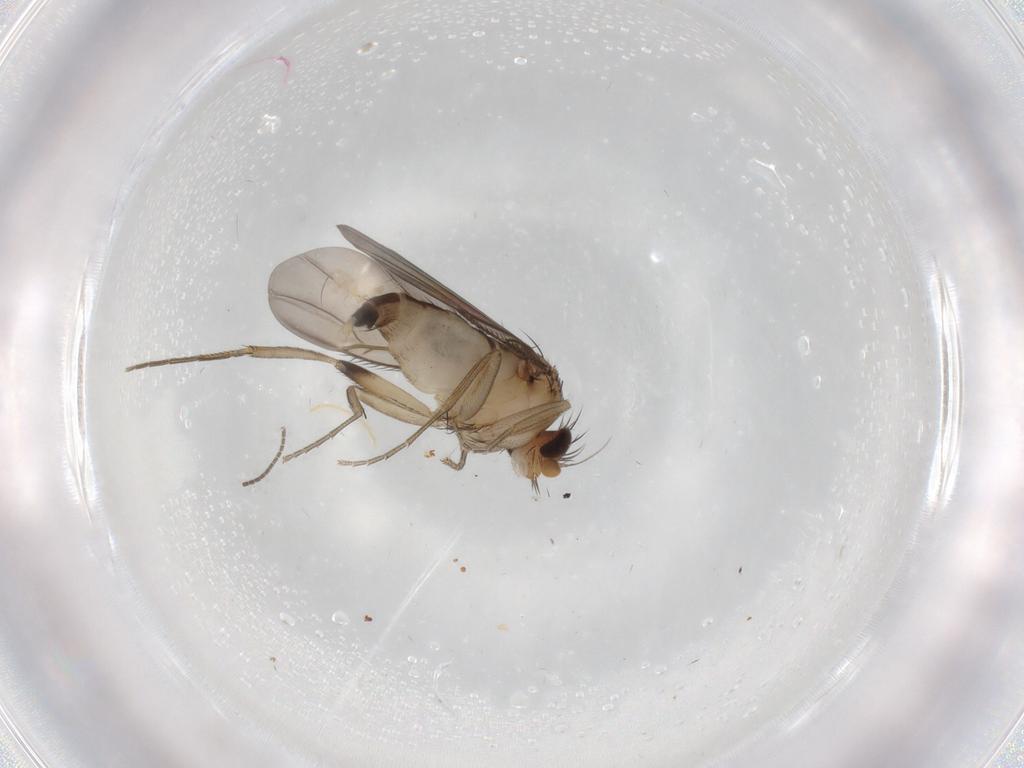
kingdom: Animalia
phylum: Arthropoda
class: Insecta
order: Diptera
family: Phoridae
